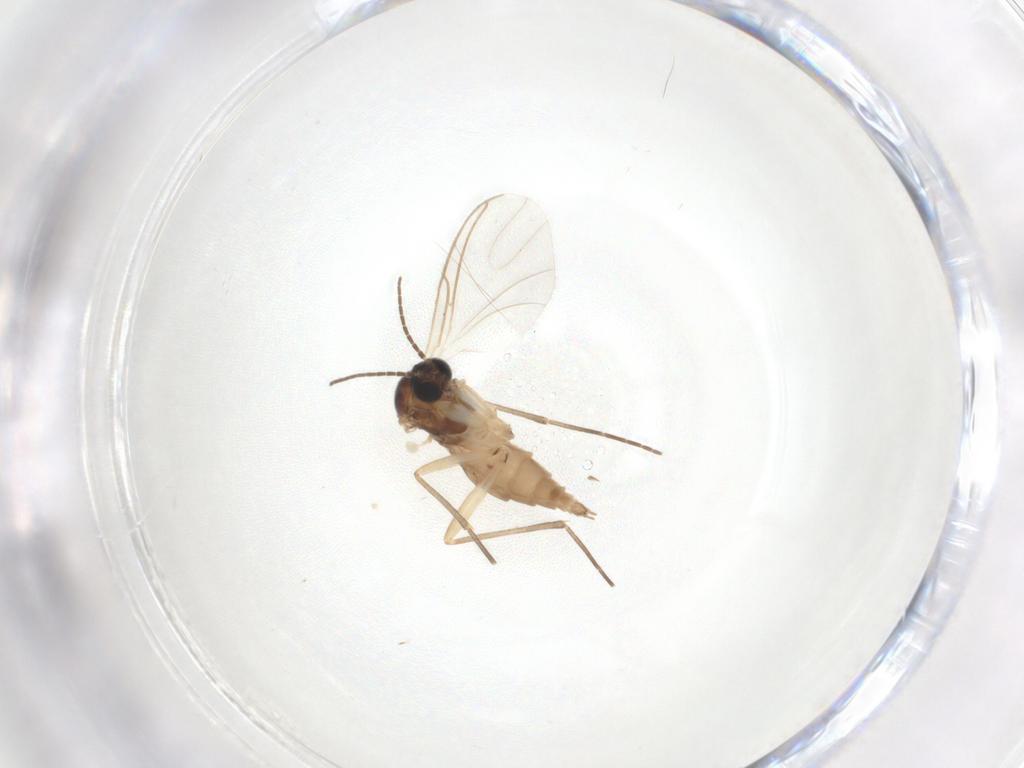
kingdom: Animalia
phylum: Arthropoda
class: Insecta
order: Diptera
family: Sciaridae
